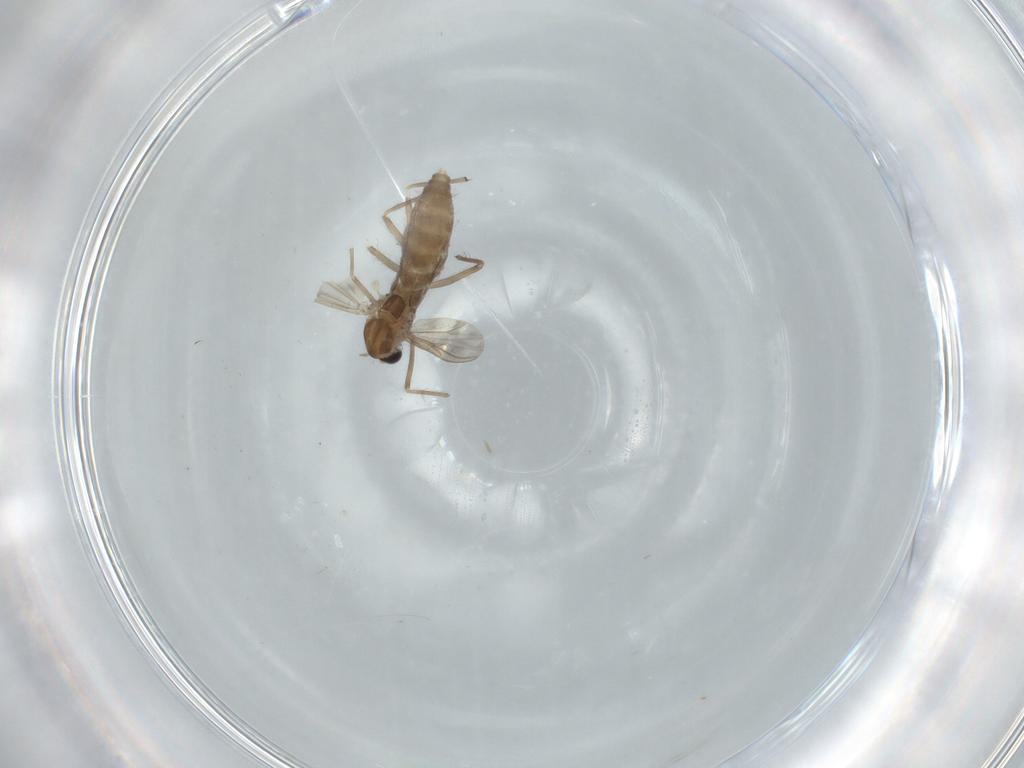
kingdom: Animalia
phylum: Arthropoda
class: Insecta
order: Diptera
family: Chironomidae
